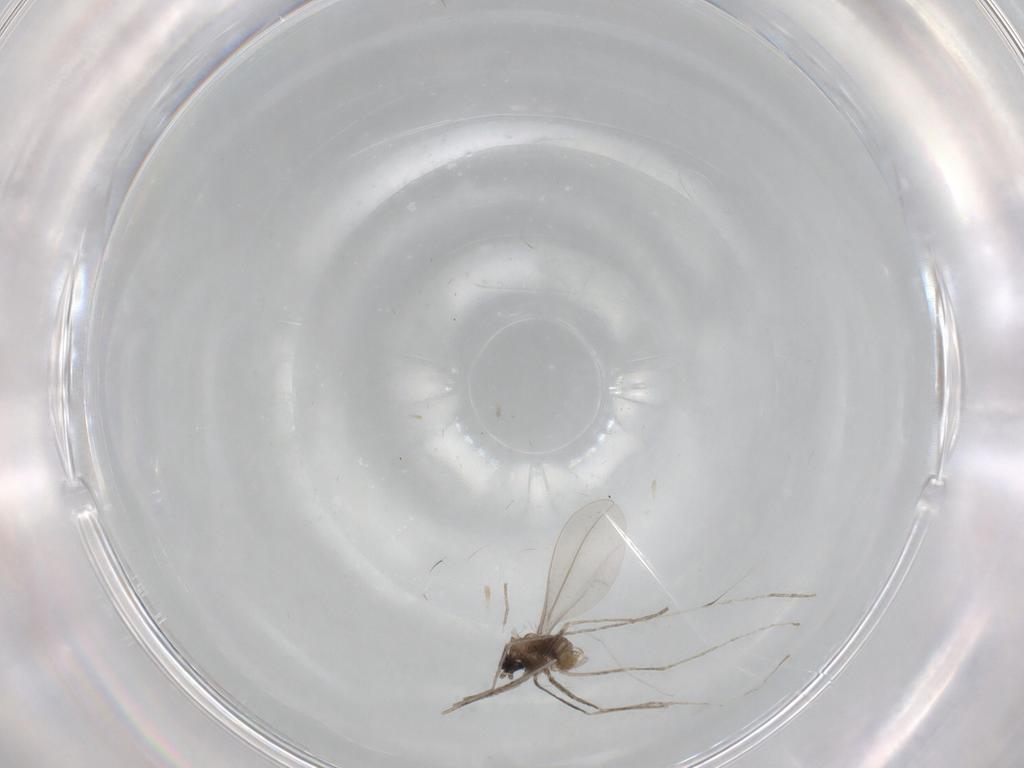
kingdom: Animalia
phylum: Arthropoda
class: Insecta
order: Diptera
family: Cecidomyiidae
